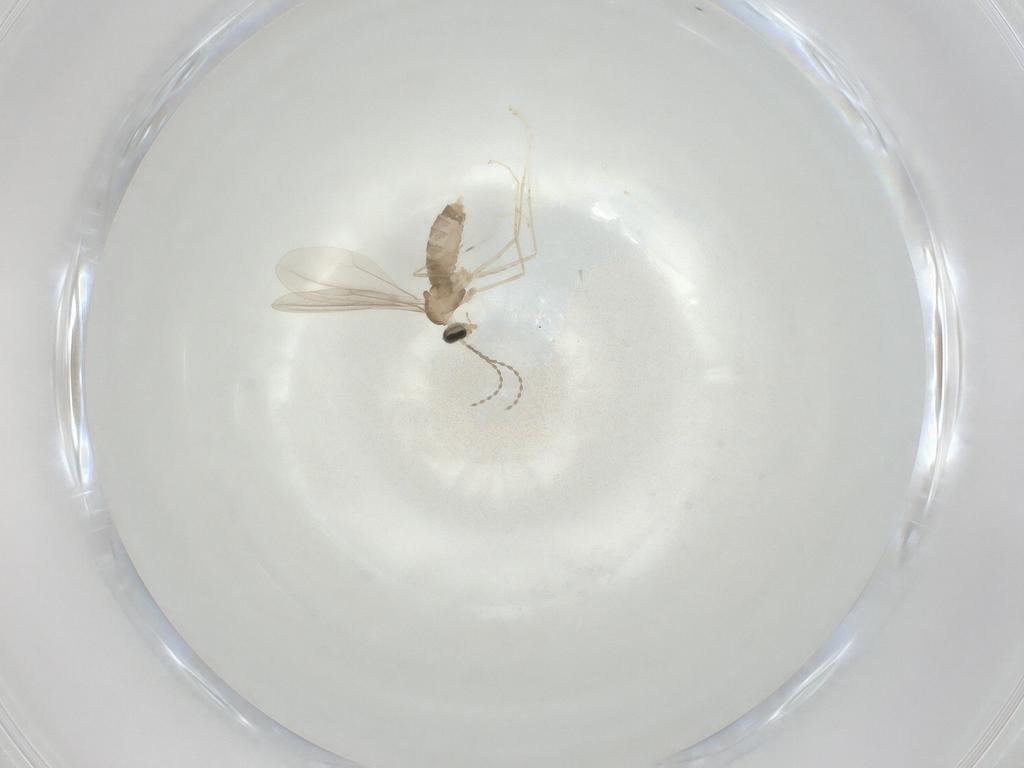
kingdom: Animalia
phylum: Arthropoda
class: Insecta
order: Diptera
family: Cecidomyiidae
